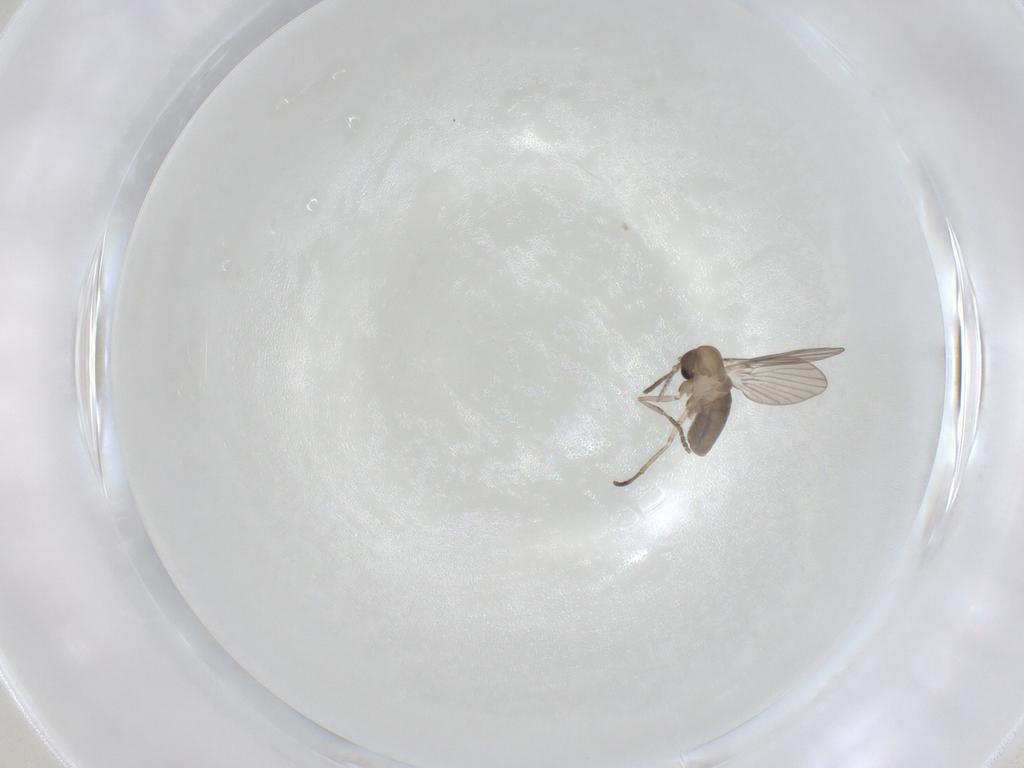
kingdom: Animalia
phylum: Arthropoda
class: Insecta
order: Diptera
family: Psychodidae
